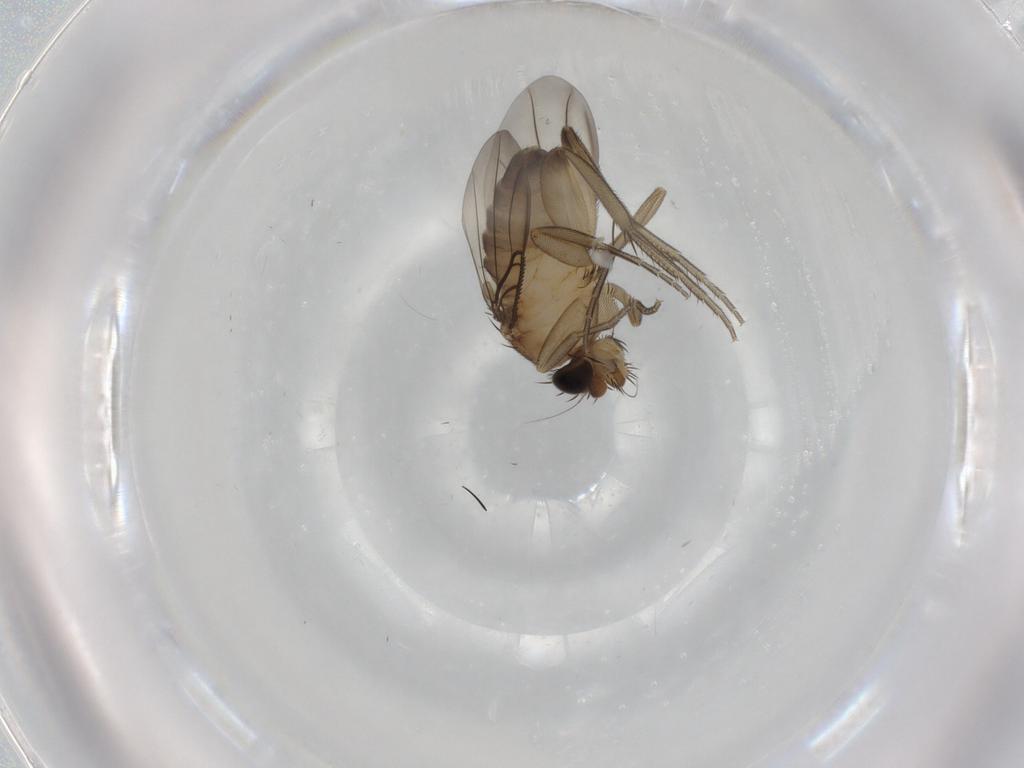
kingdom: Animalia
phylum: Arthropoda
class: Insecta
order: Diptera
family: Phoridae
